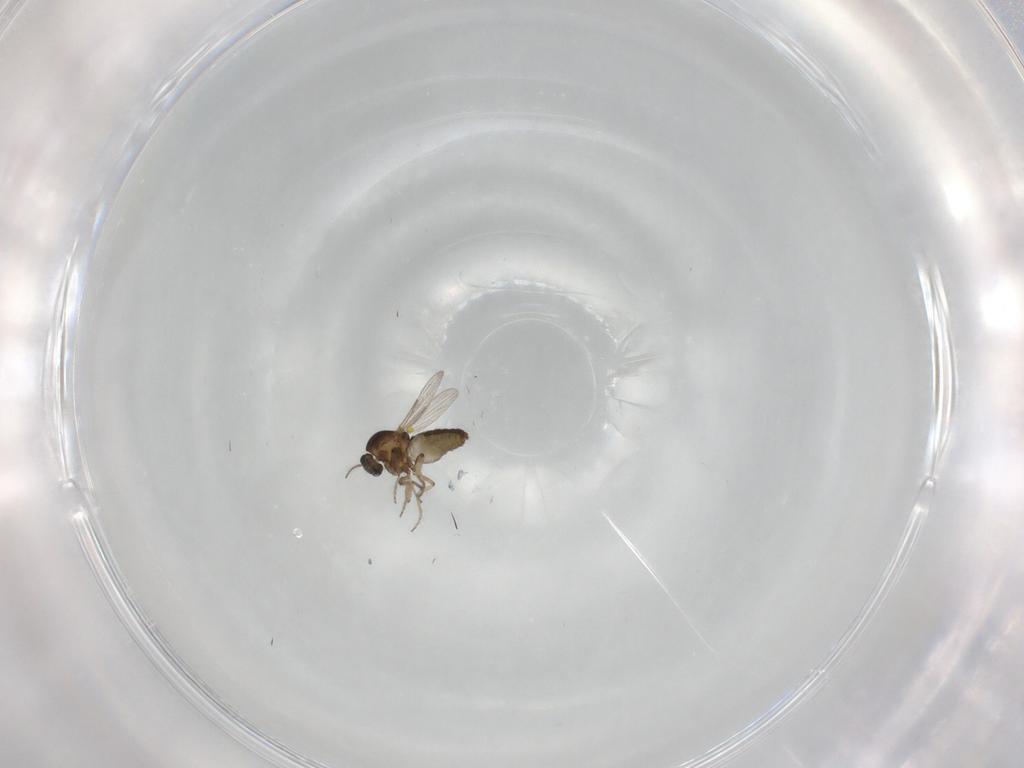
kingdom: Animalia
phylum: Arthropoda
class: Insecta
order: Diptera
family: Ceratopogonidae
